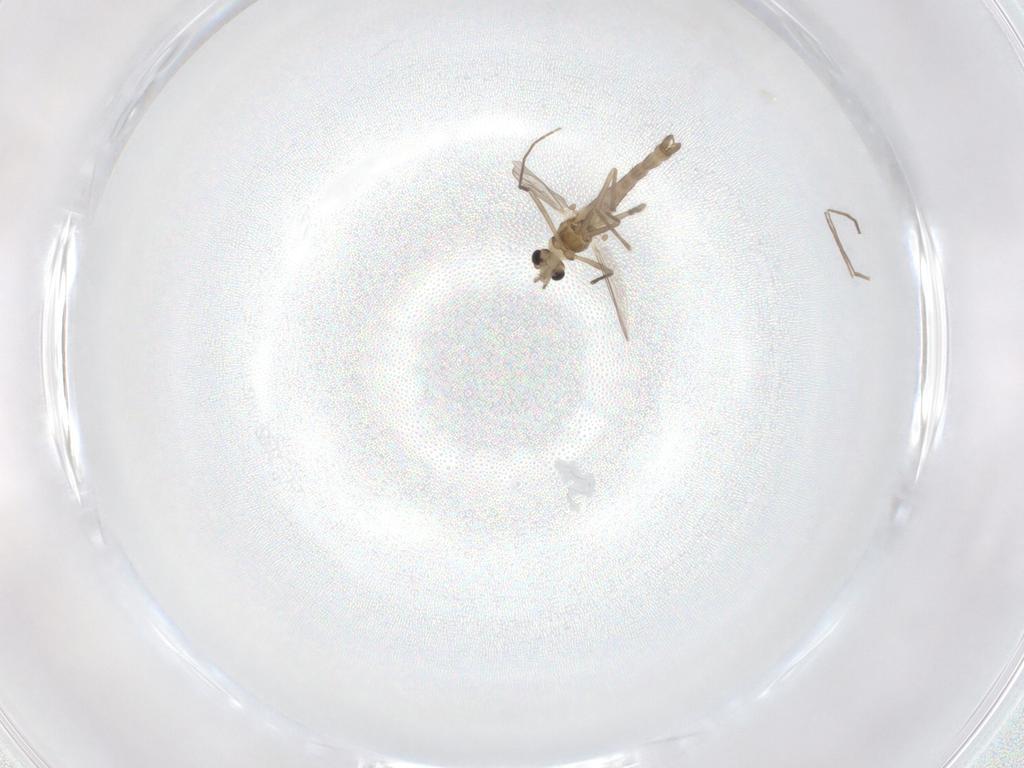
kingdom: Animalia
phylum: Arthropoda
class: Insecta
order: Diptera
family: Chironomidae
